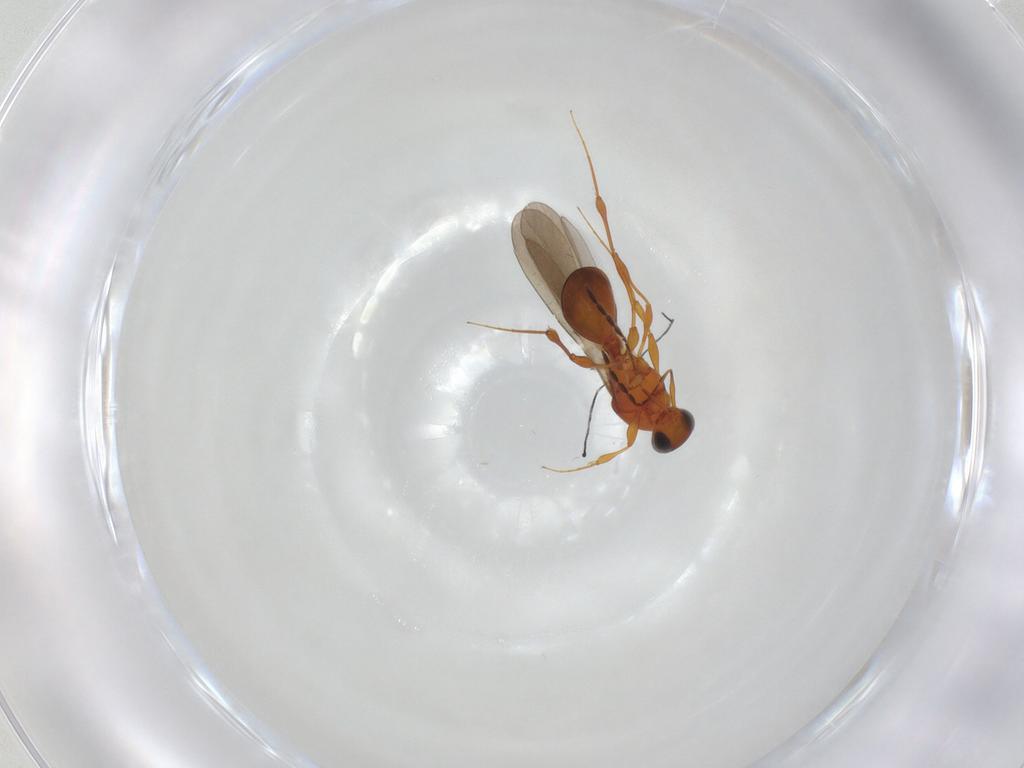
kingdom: Animalia
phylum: Arthropoda
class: Insecta
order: Hymenoptera
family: Platygastridae
